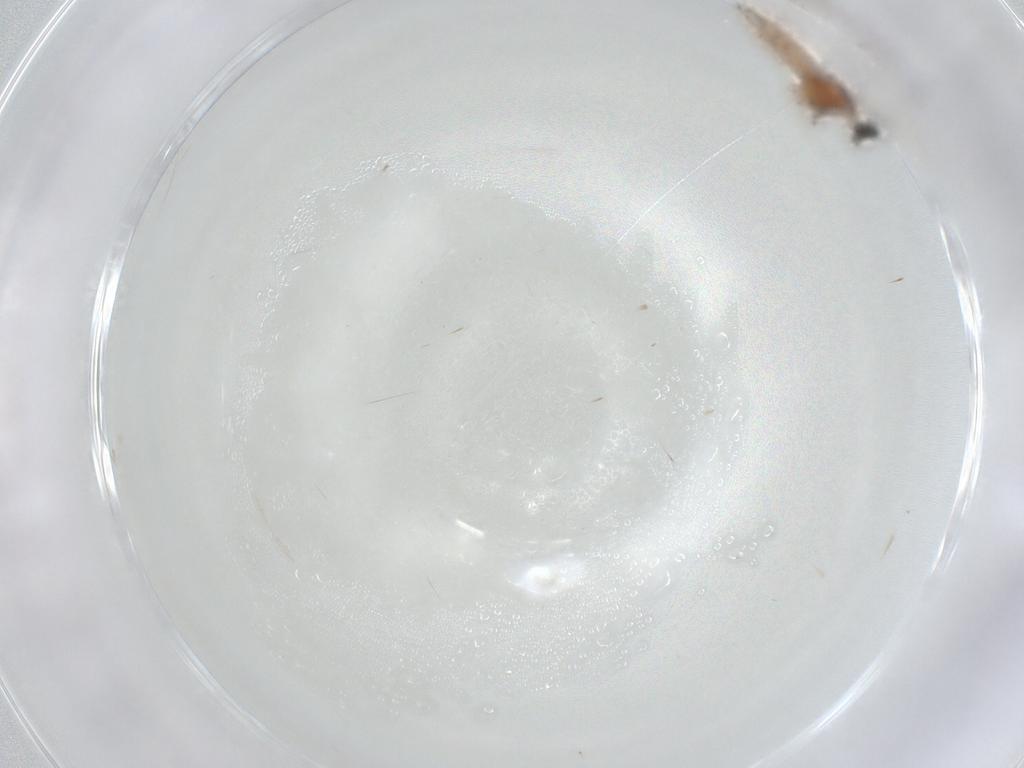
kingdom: Animalia
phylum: Arthropoda
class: Insecta
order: Diptera
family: Cecidomyiidae
